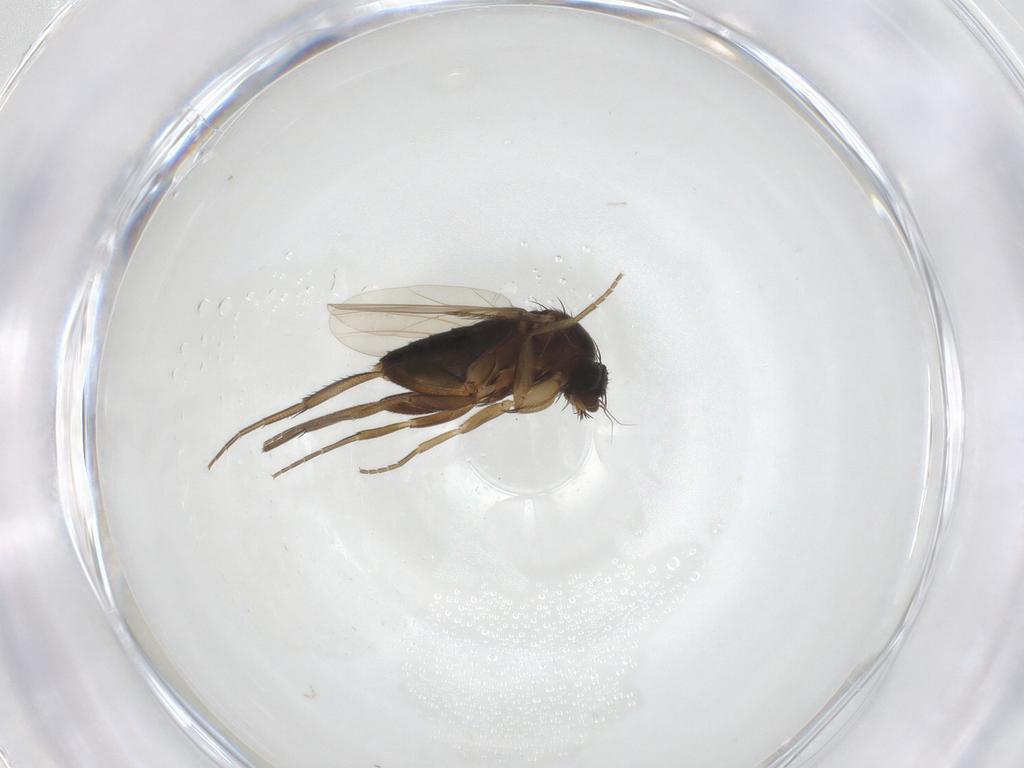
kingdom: Animalia
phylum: Arthropoda
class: Insecta
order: Diptera
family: Phoridae
